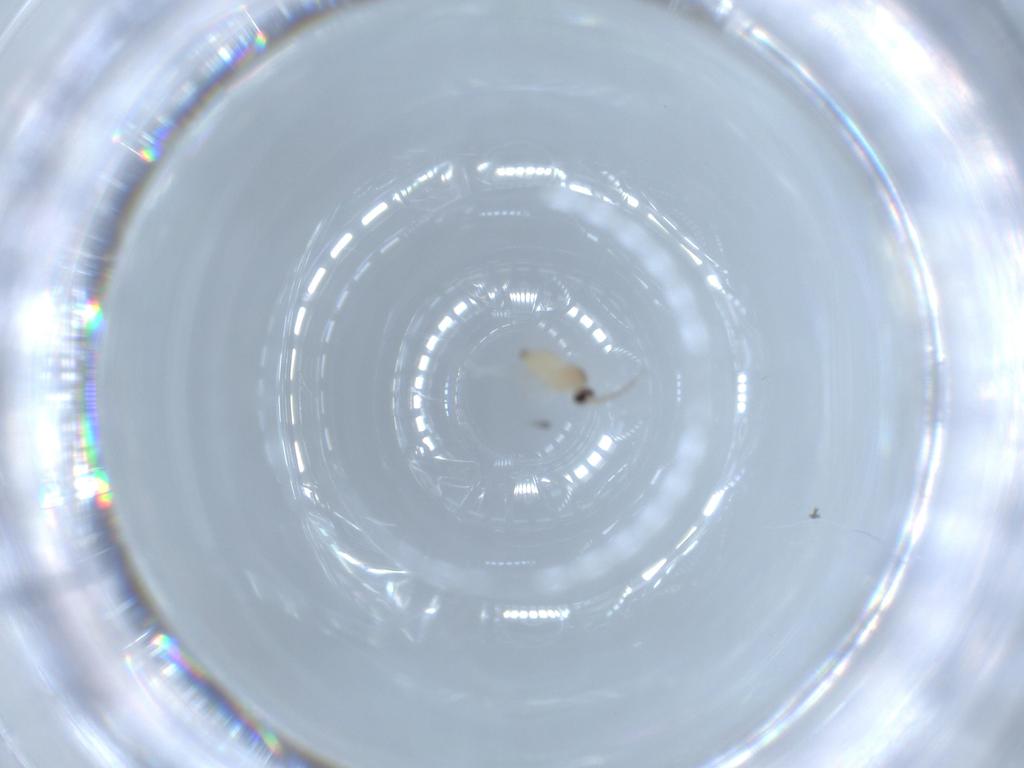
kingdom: Animalia
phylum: Arthropoda
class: Insecta
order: Diptera
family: Cecidomyiidae
